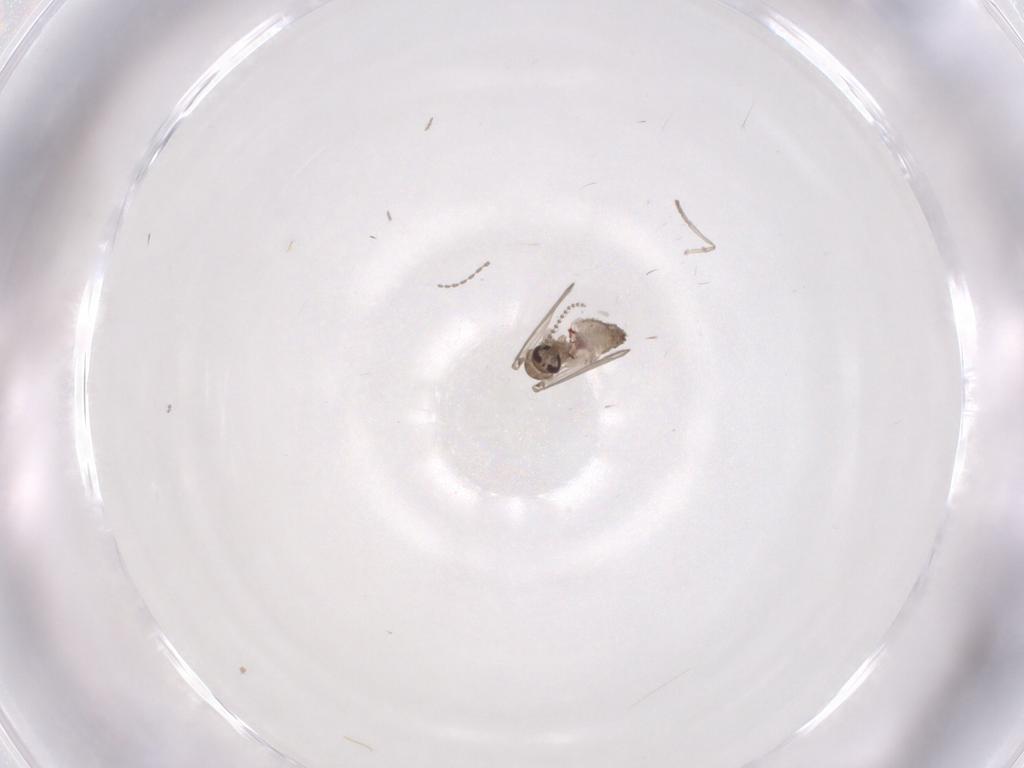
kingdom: Animalia
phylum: Arthropoda
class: Insecta
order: Diptera
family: Psychodidae
